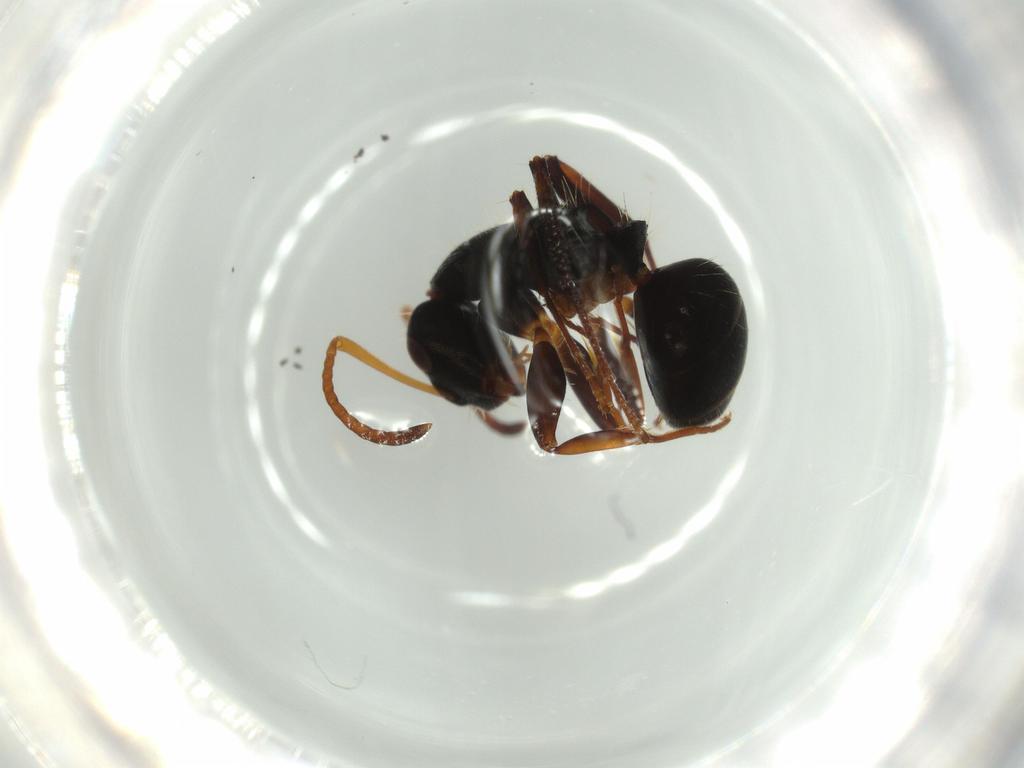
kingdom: Animalia
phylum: Arthropoda
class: Insecta
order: Hymenoptera
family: Formicidae
